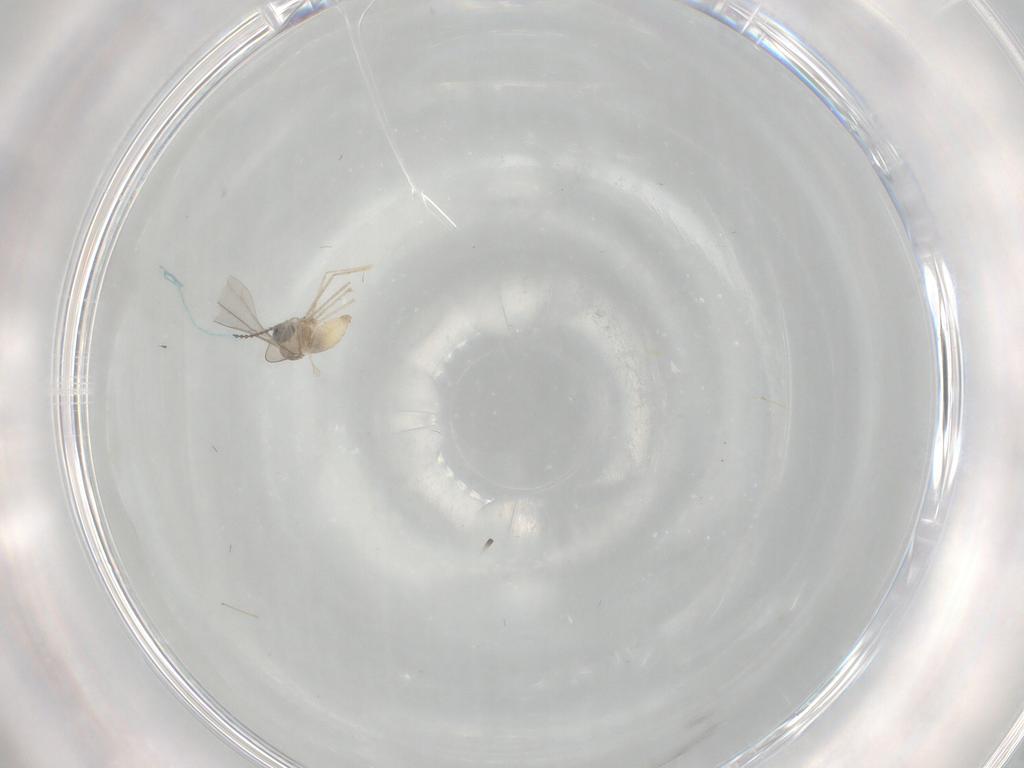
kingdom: Animalia
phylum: Arthropoda
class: Insecta
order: Diptera
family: Cecidomyiidae
